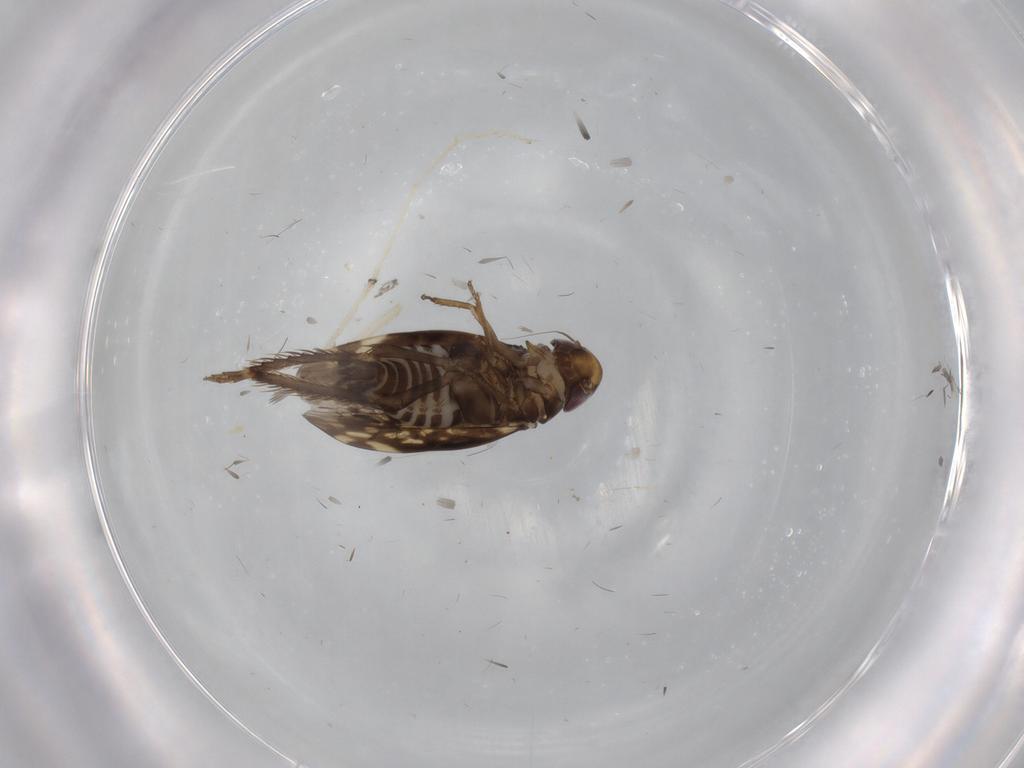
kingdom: Animalia
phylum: Arthropoda
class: Insecta
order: Hemiptera
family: Cicadellidae
